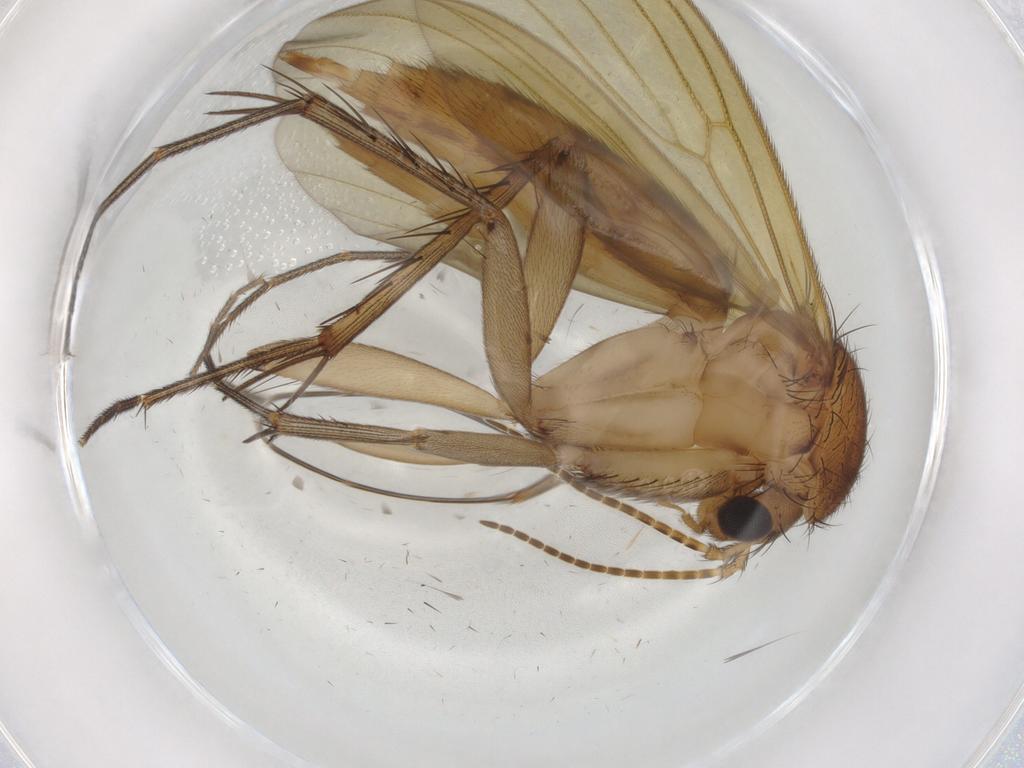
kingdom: Animalia
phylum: Arthropoda
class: Insecta
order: Diptera
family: Mycetophilidae
